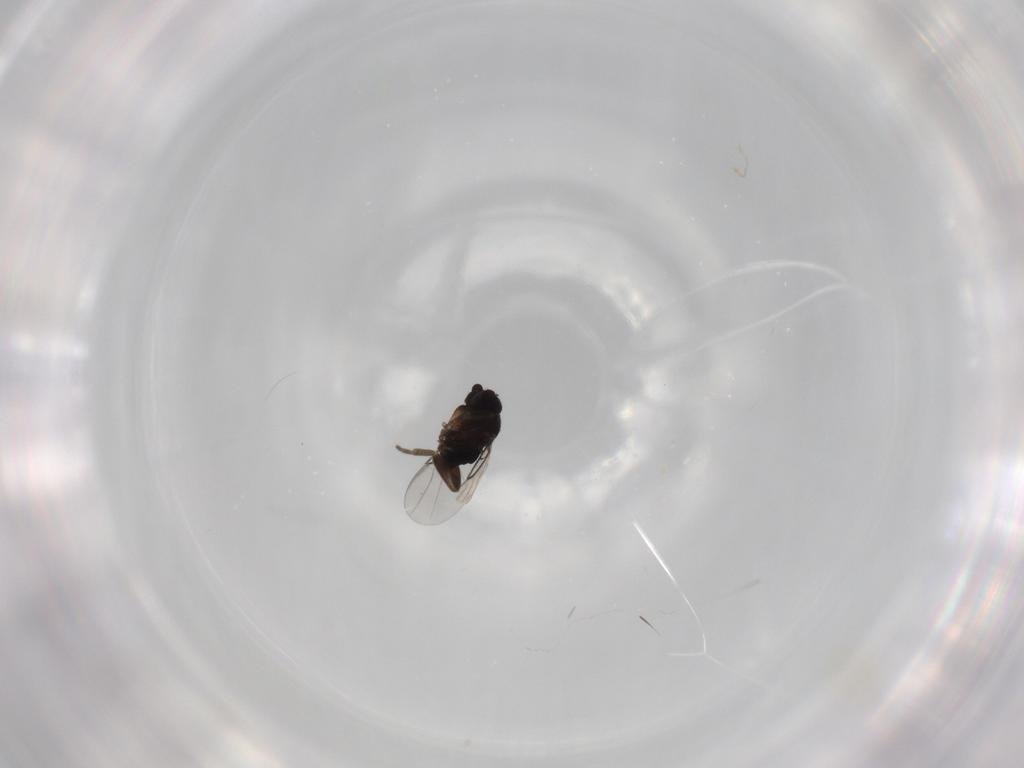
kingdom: Animalia
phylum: Arthropoda
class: Insecta
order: Diptera
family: Phoridae
